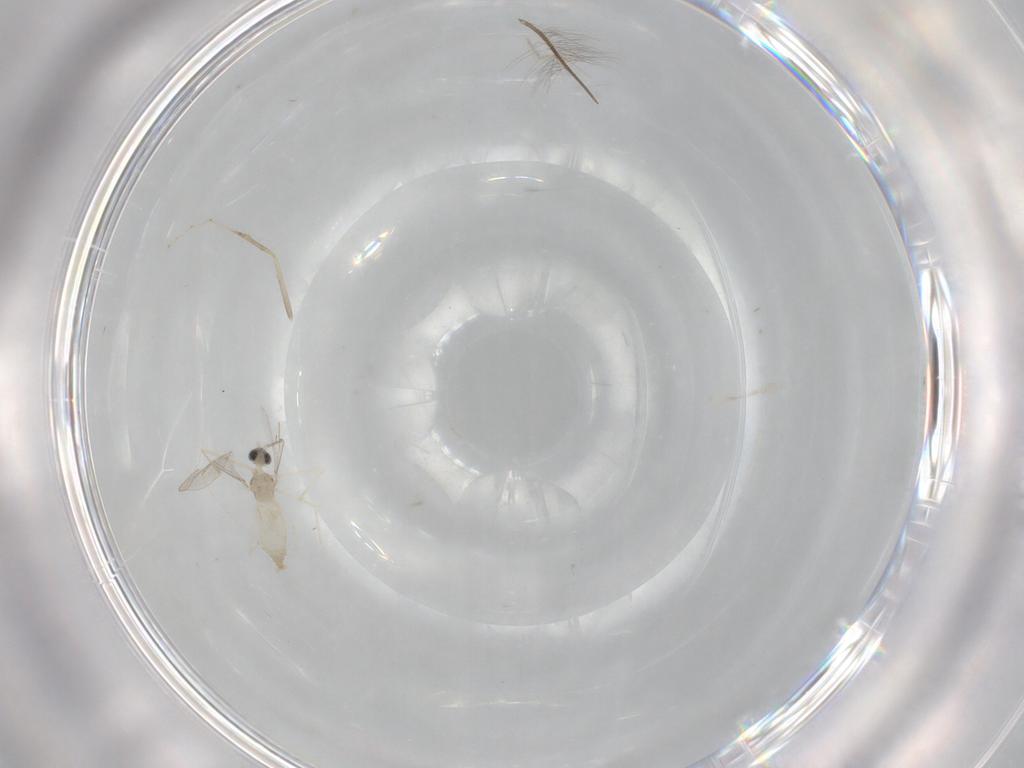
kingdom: Animalia
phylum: Arthropoda
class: Insecta
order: Diptera
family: Cecidomyiidae
